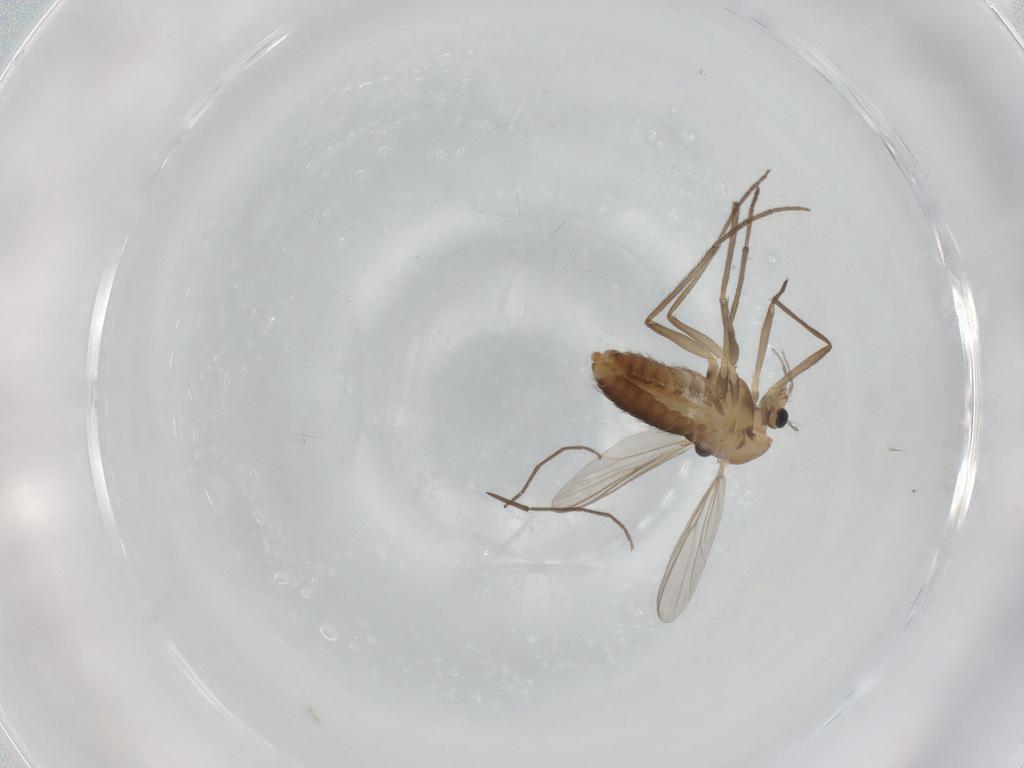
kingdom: Animalia
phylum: Arthropoda
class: Insecta
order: Diptera
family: Chironomidae
